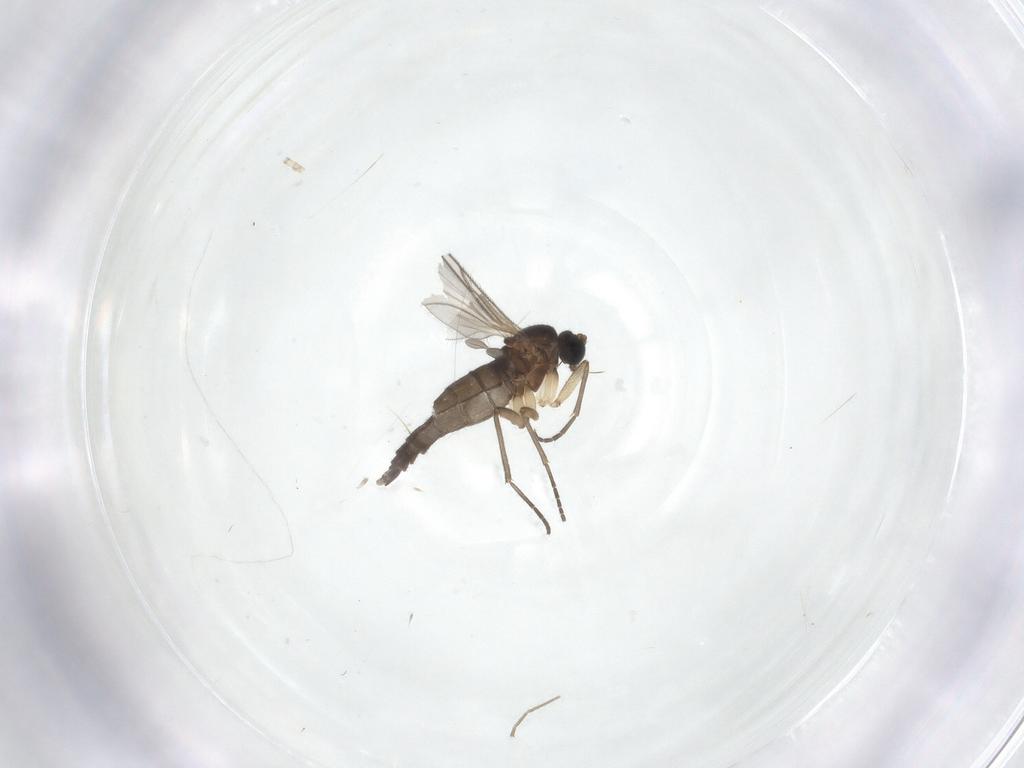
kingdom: Animalia
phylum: Arthropoda
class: Insecta
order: Diptera
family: Sciaridae
